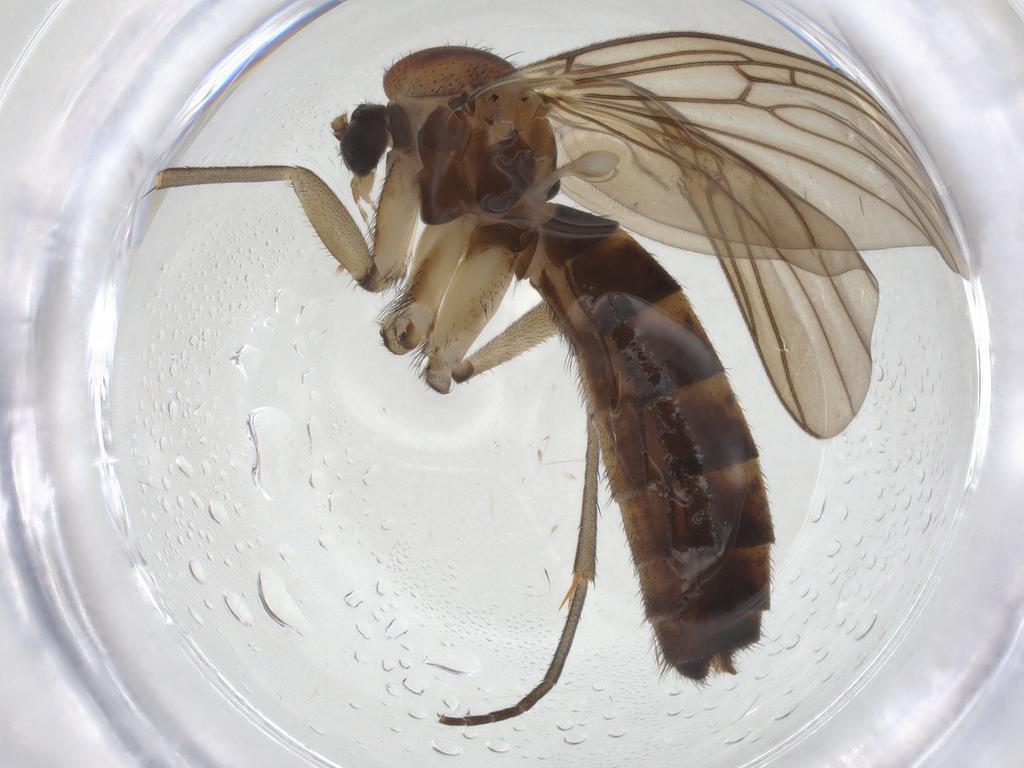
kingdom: Animalia
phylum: Arthropoda
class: Insecta
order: Diptera
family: Mycetophilidae
